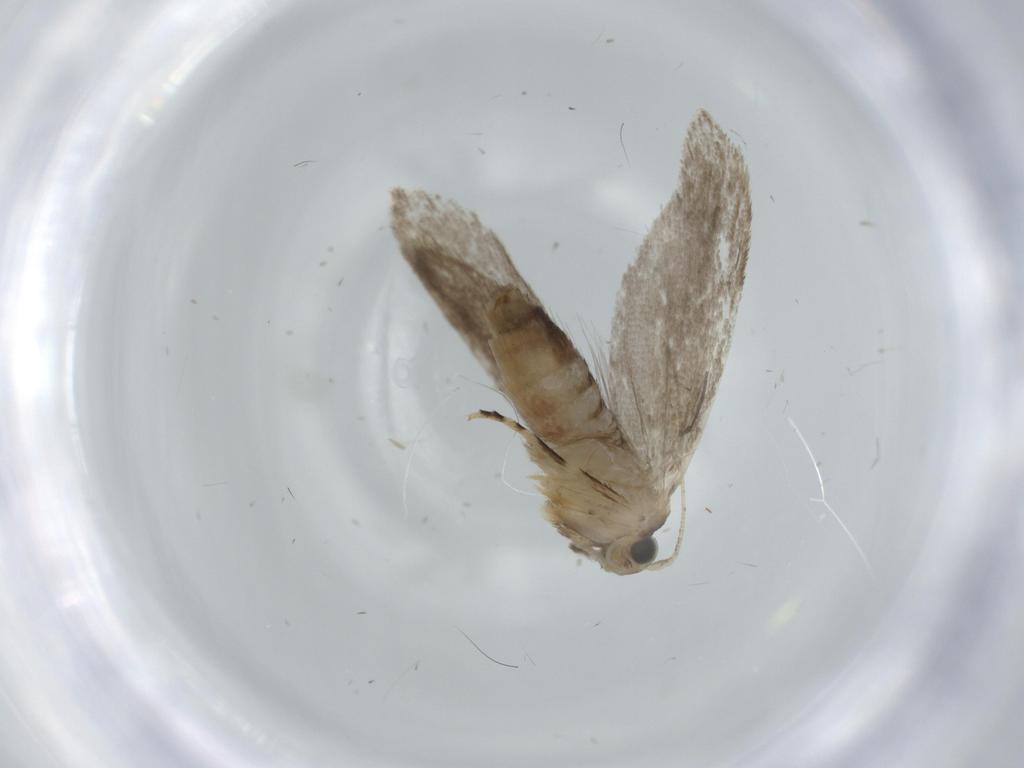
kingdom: Animalia
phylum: Arthropoda
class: Insecta
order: Lepidoptera
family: Tineidae
